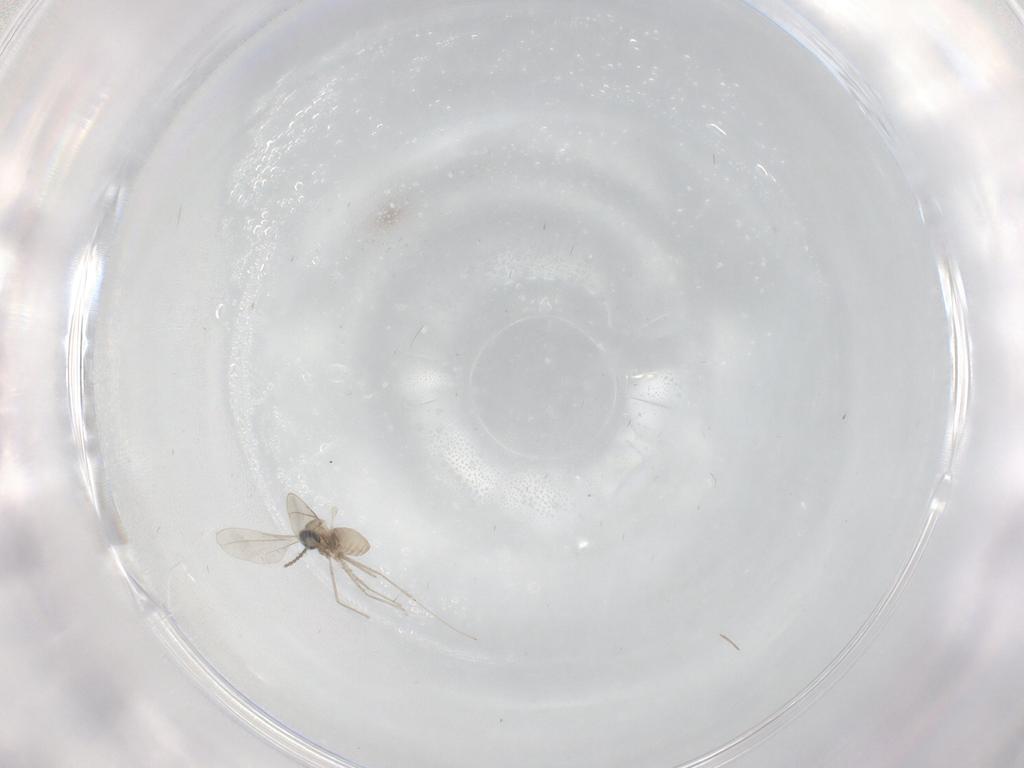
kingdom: Animalia
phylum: Arthropoda
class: Insecta
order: Diptera
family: Cecidomyiidae
